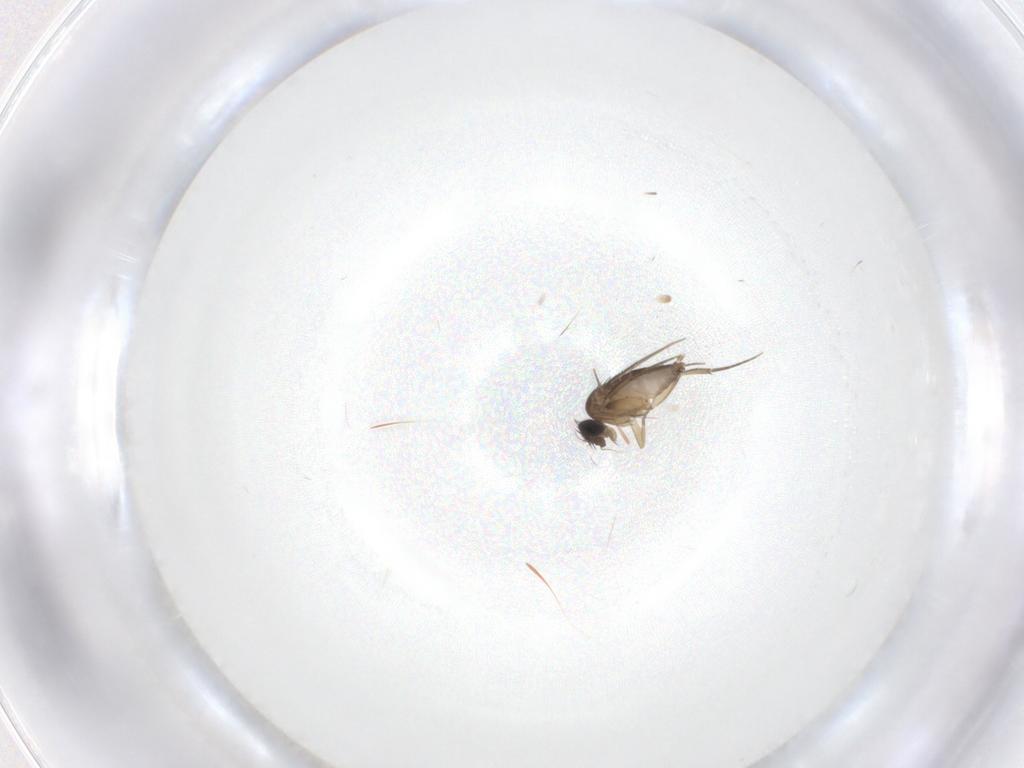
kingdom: Animalia
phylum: Arthropoda
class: Insecta
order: Diptera
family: Phoridae
